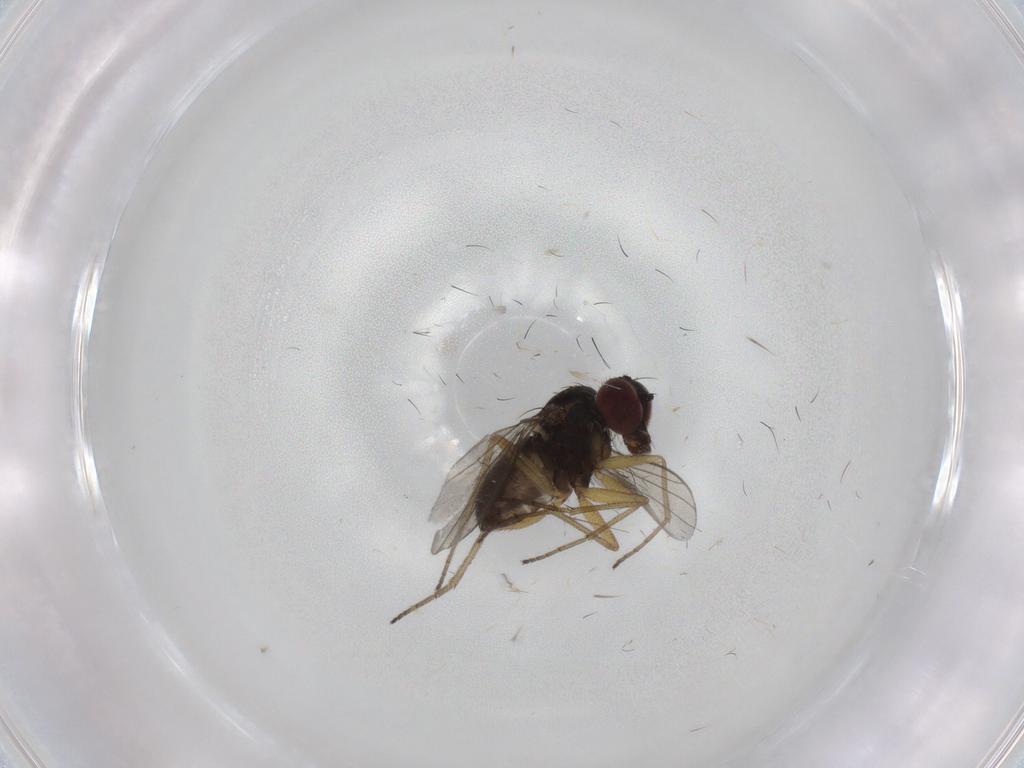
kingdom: Animalia
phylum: Arthropoda
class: Insecta
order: Diptera
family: Dolichopodidae
